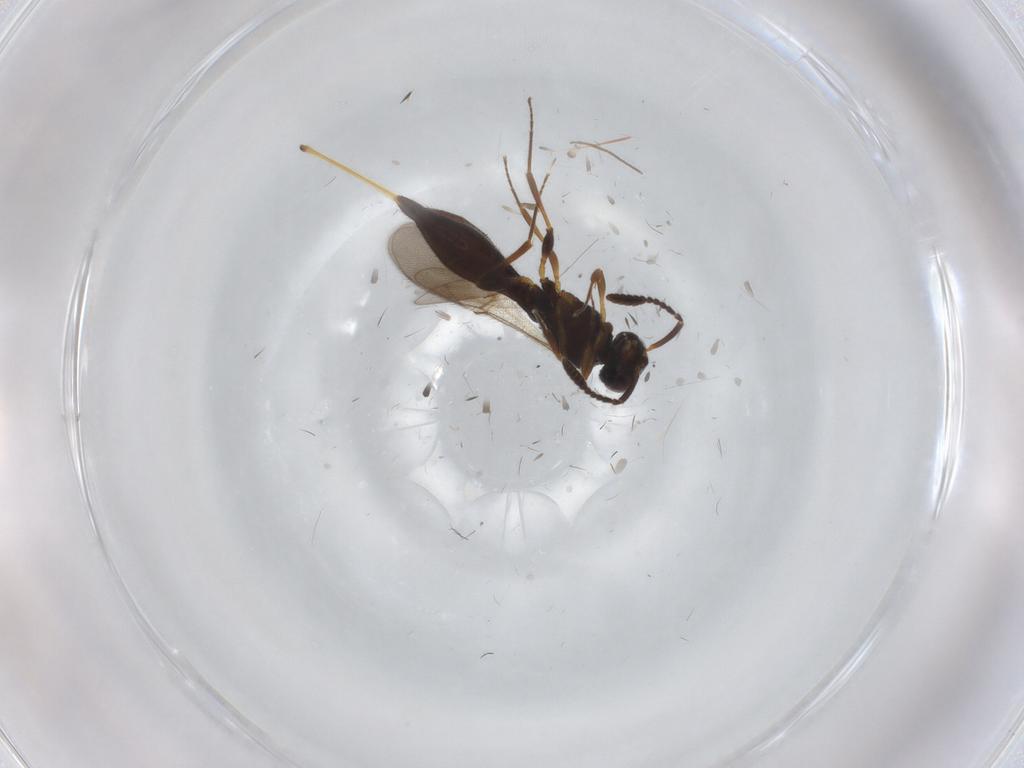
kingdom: Animalia
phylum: Arthropoda
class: Insecta
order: Hymenoptera
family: Scelionidae
